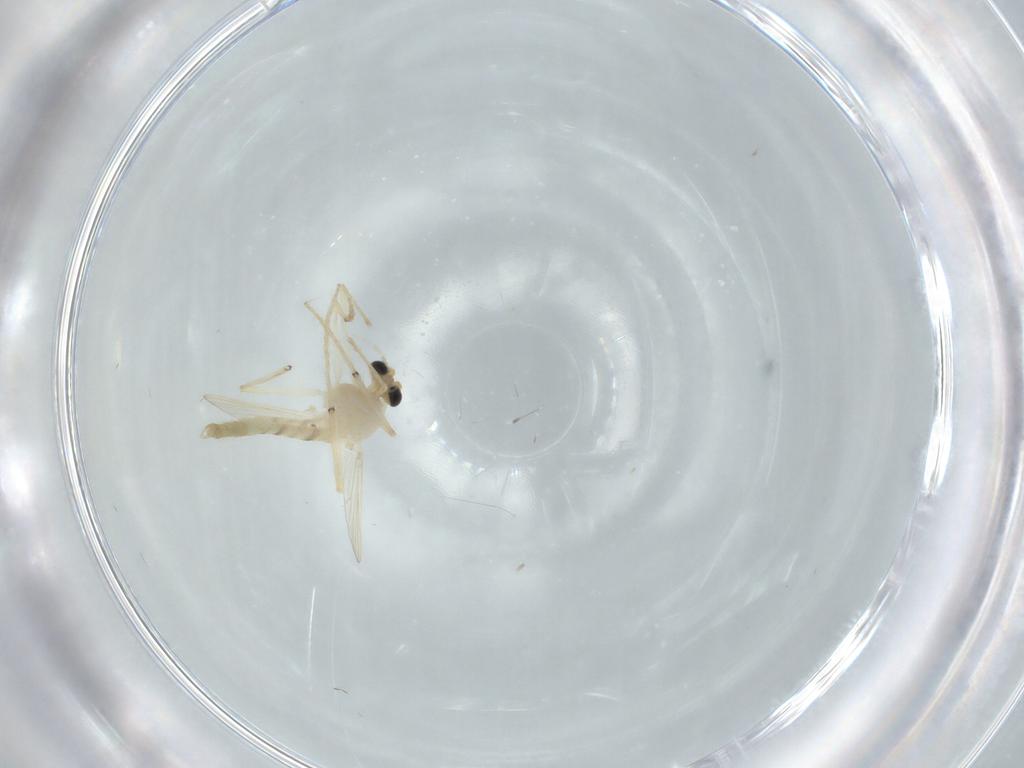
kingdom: Animalia
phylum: Arthropoda
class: Insecta
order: Diptera
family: Chironomidae
